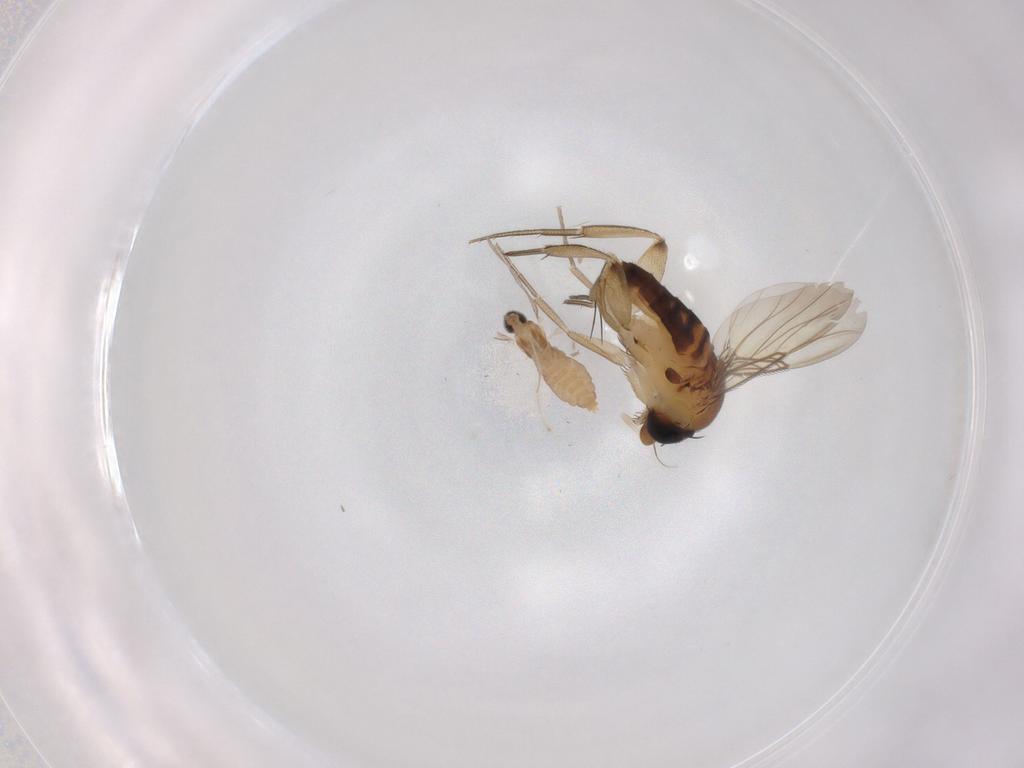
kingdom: Animalia
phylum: Arthropoda
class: Insecta
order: Diptera
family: Cecidomyiidae
